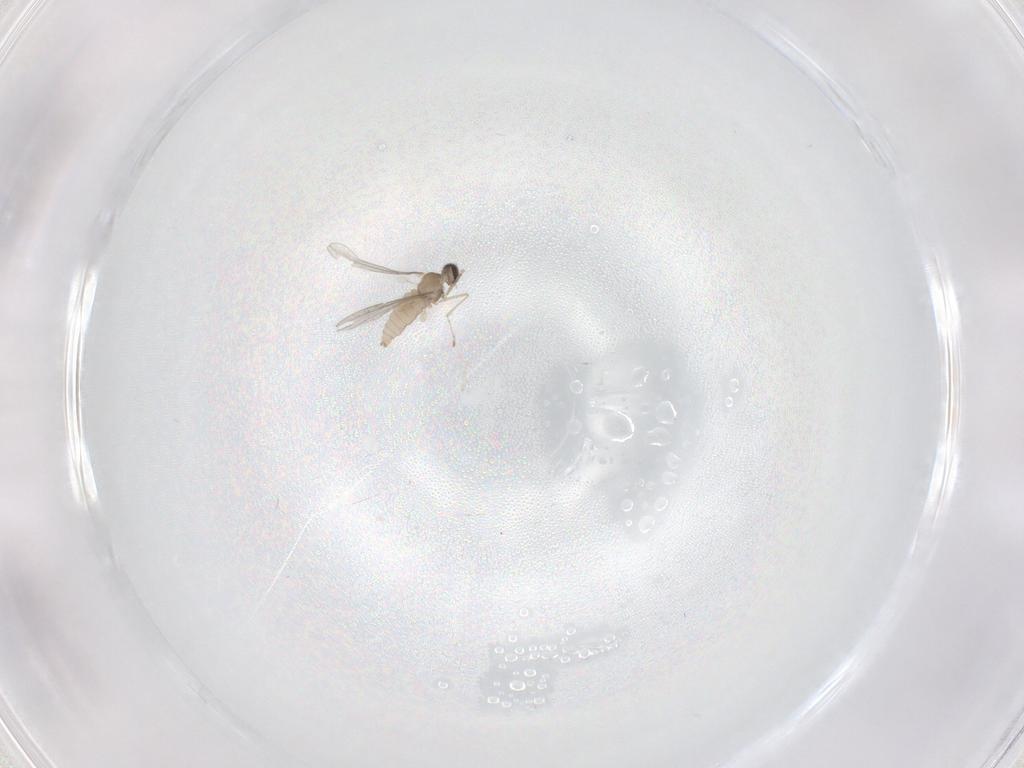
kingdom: Animalia
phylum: Arthropoda
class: Insecta
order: Diptera
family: Cecidomyiidae
